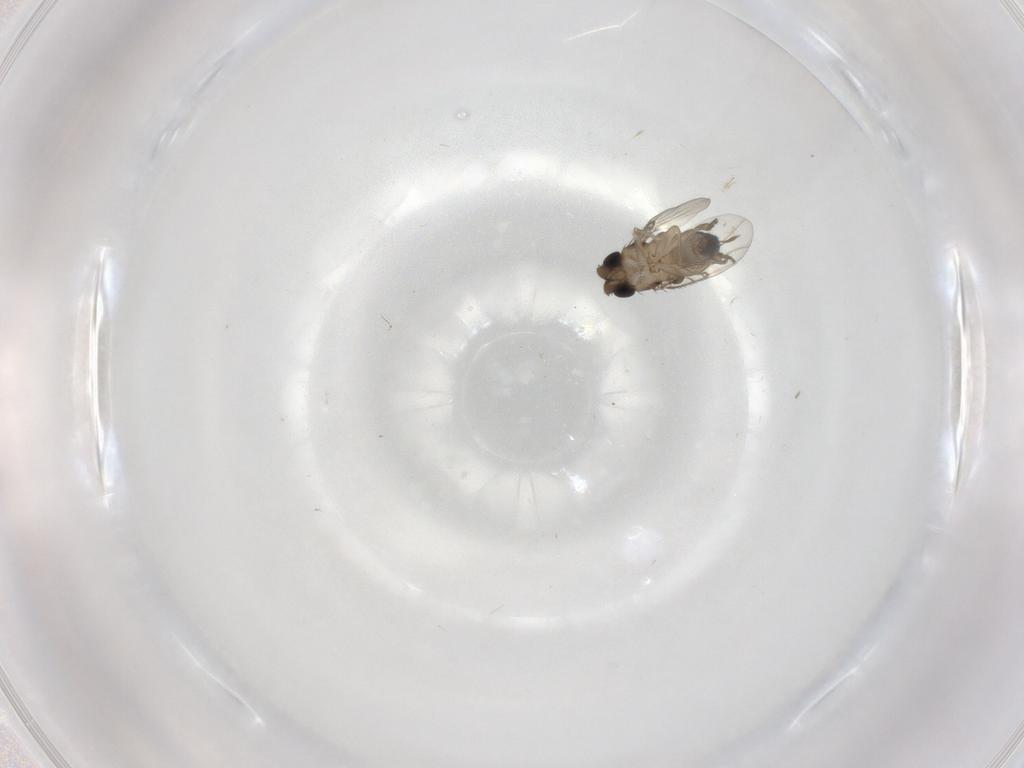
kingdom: Animalia
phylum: Arthropoda
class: Insecta
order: Diptera
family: Phoridae
